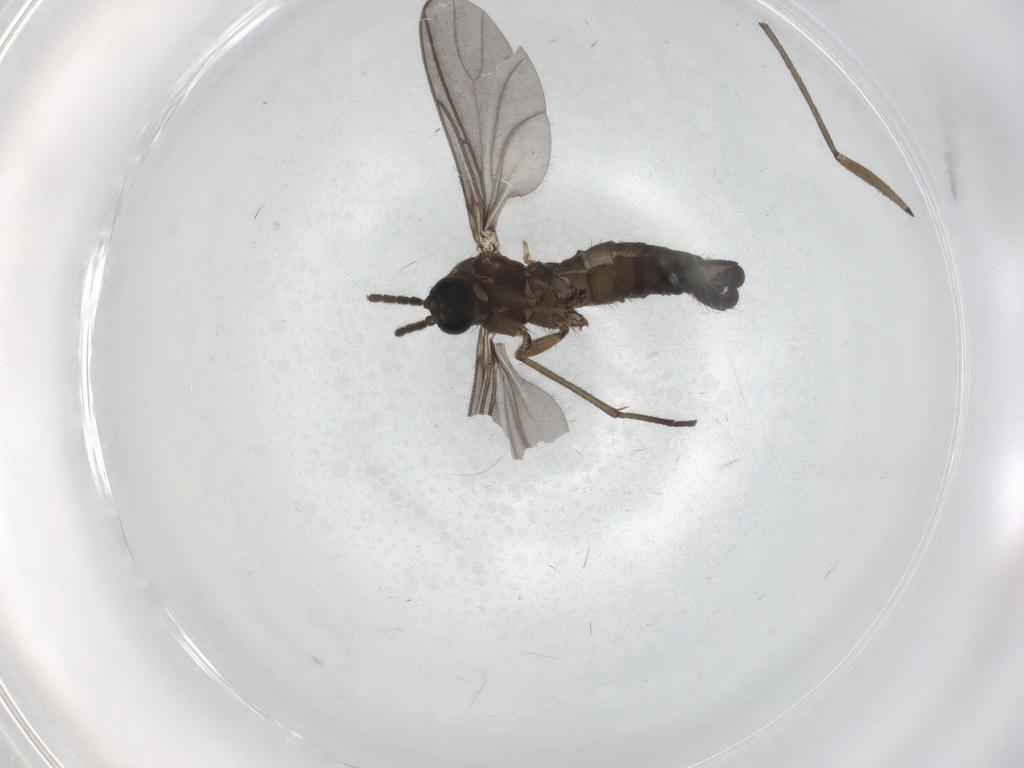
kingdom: Animalia
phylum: Arthropoda
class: Insecta
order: Diptera
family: Sciaridae
